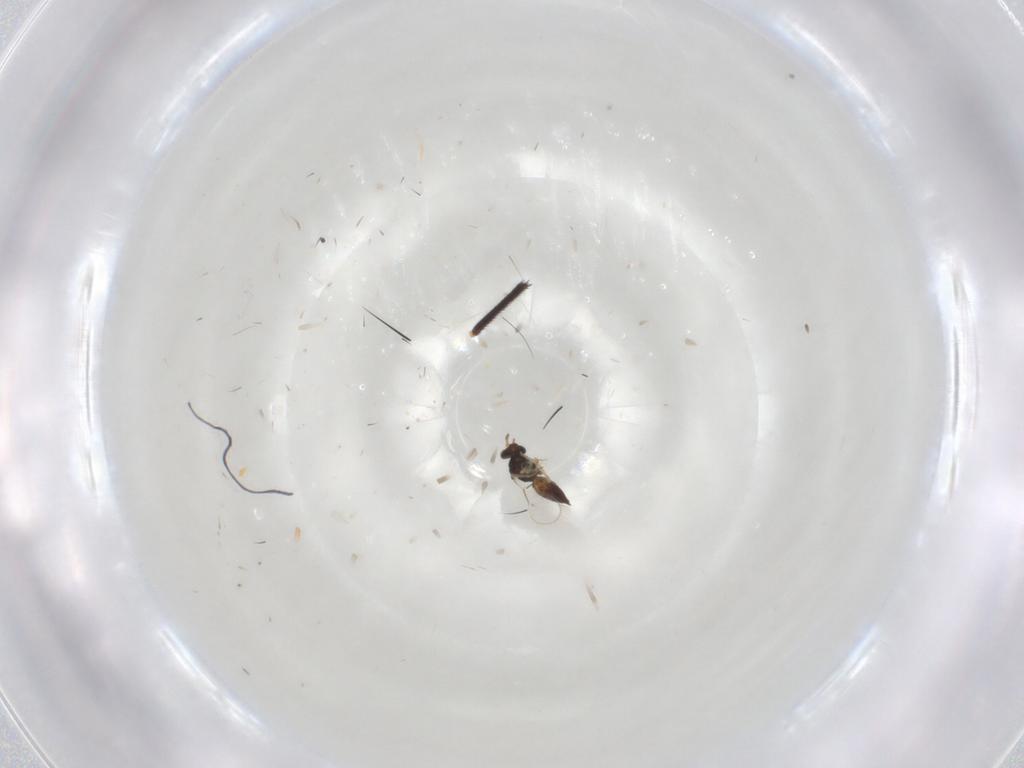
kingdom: Animalia
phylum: Arthropoda
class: Insecta
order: Hymenoptera
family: Eulophidae
